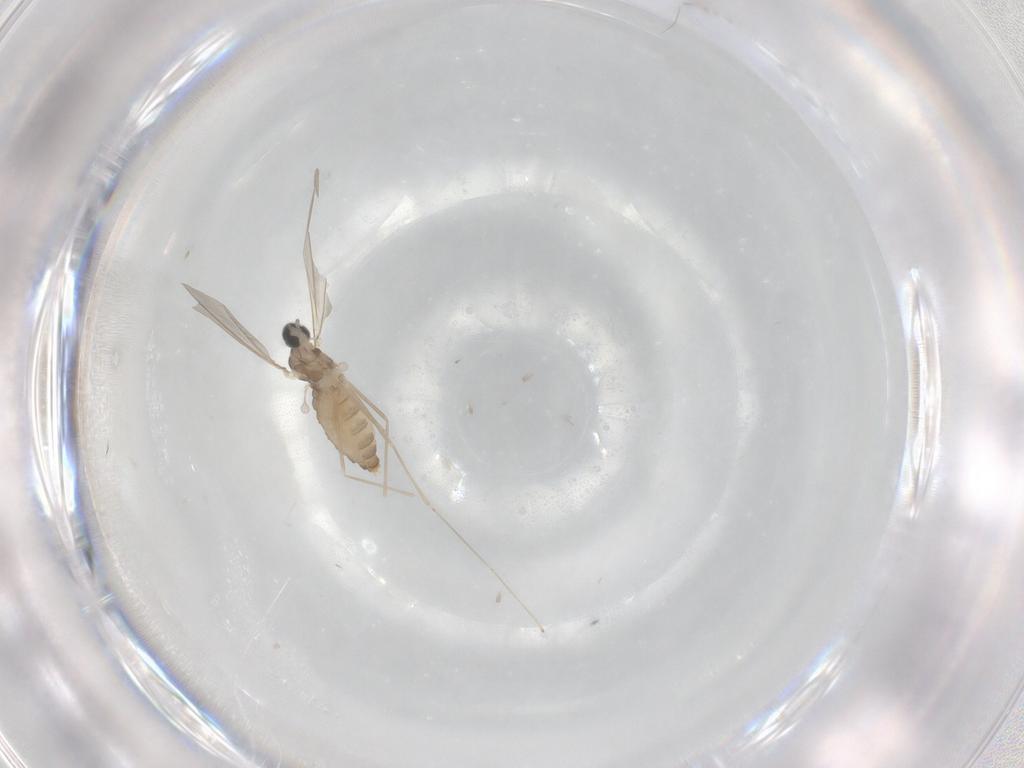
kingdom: Animalia
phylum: Arthropoda
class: Insecta
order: Diptera
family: Cecidomyiidae
